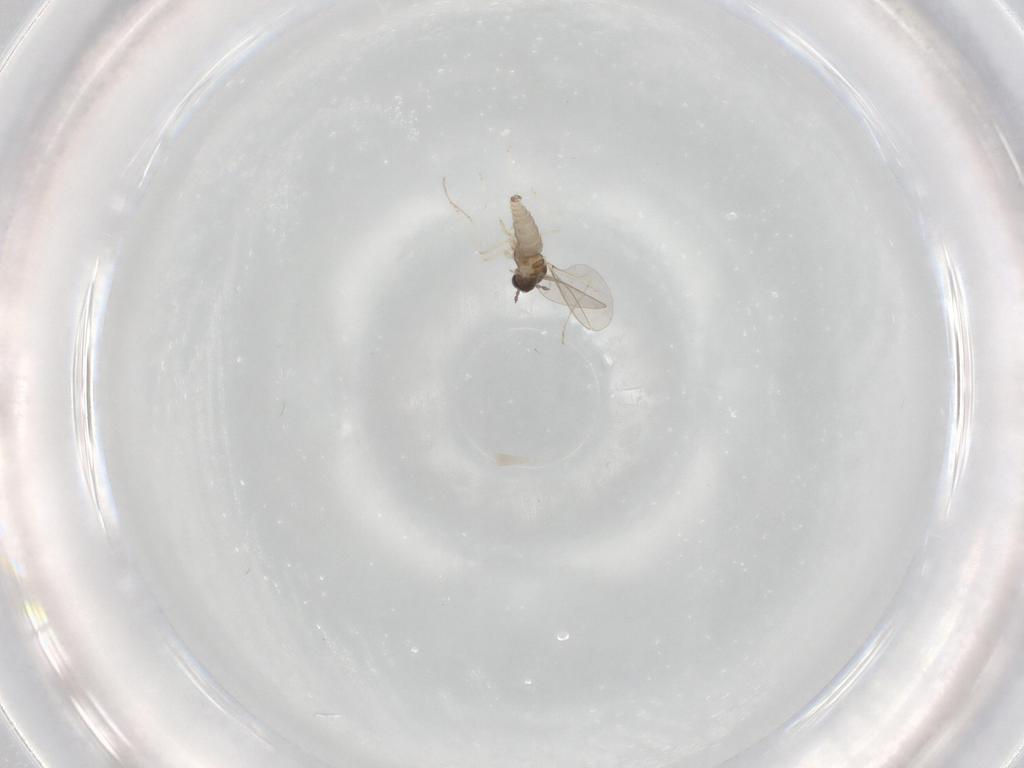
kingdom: Animalia
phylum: Arthropoda
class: Insecta
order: Diptera
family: Cecidomyiidae
